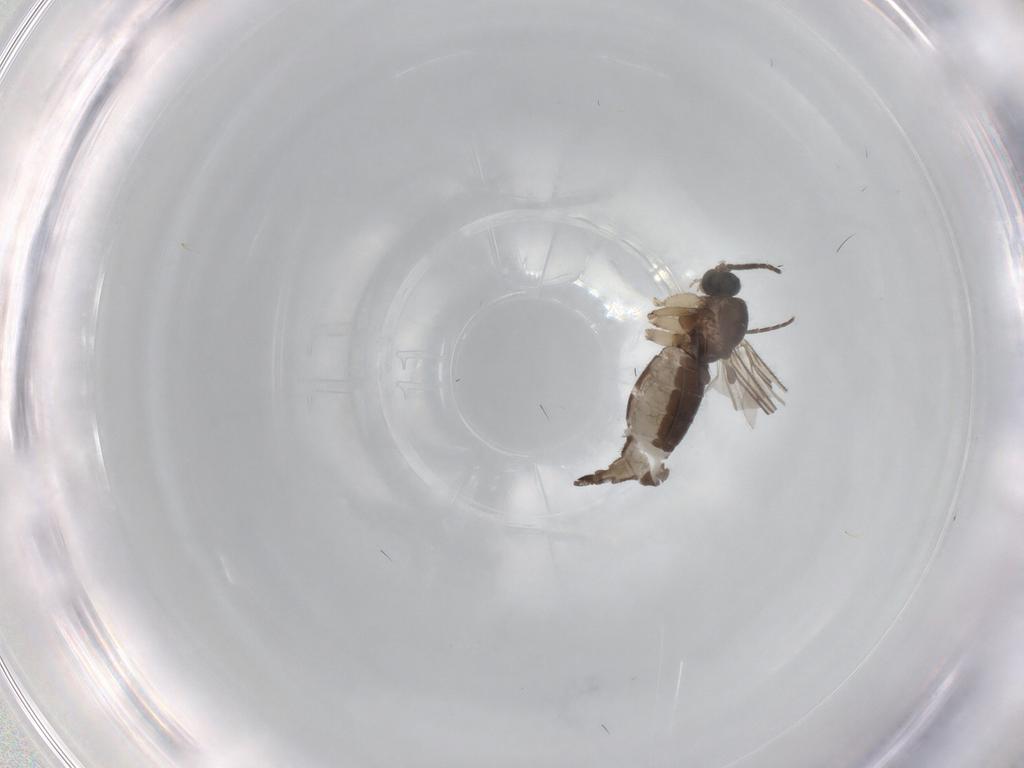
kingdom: Animalia
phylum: Arthropoda
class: Insecta
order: Diptera
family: Sciaridae
